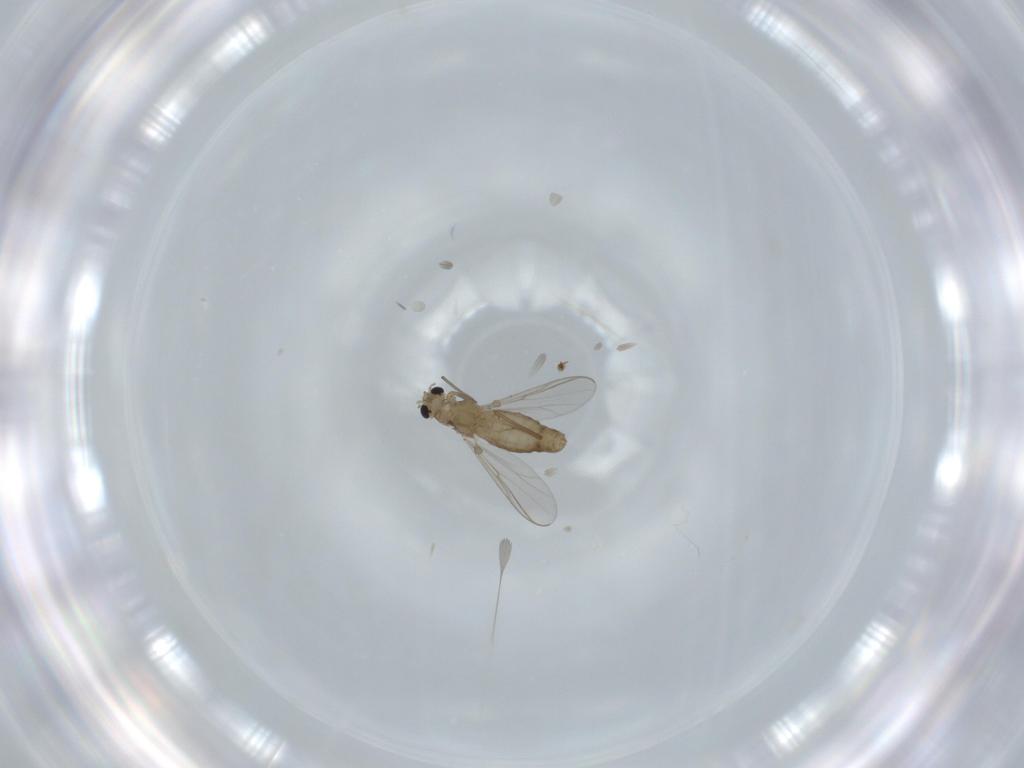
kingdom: Animalia
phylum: Arthropoda
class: Insecta
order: Diptera
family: Chironomidae
